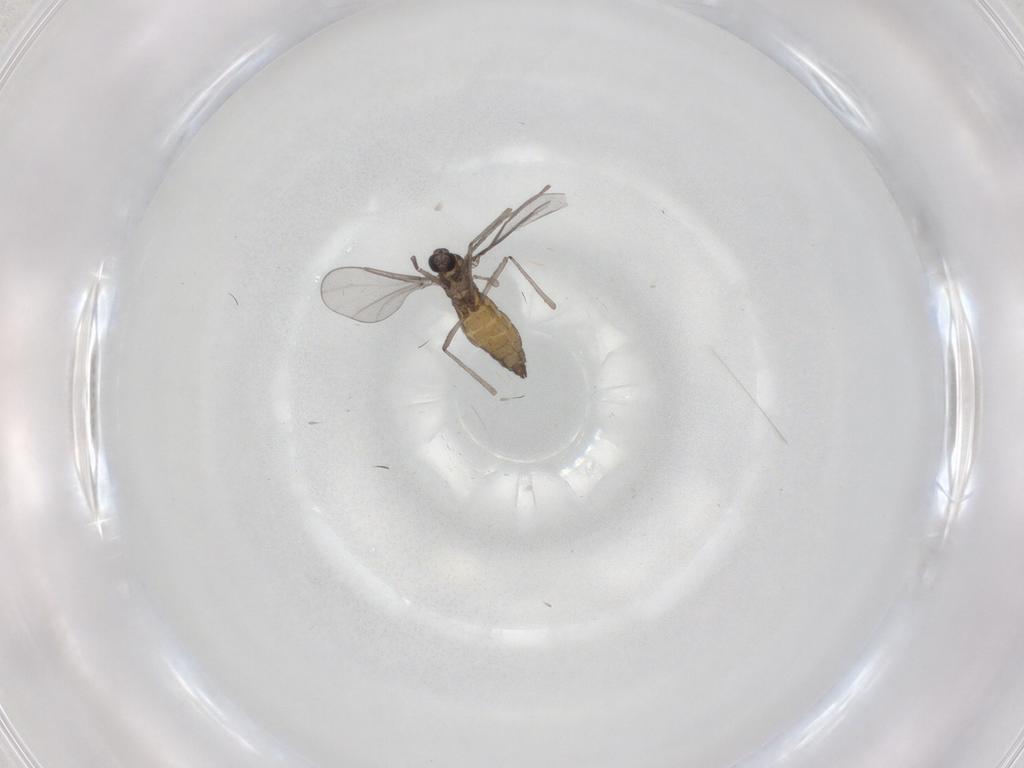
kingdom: Animalia
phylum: Arthropoda
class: Insecta
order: Diptera
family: Cecidomyiidae
